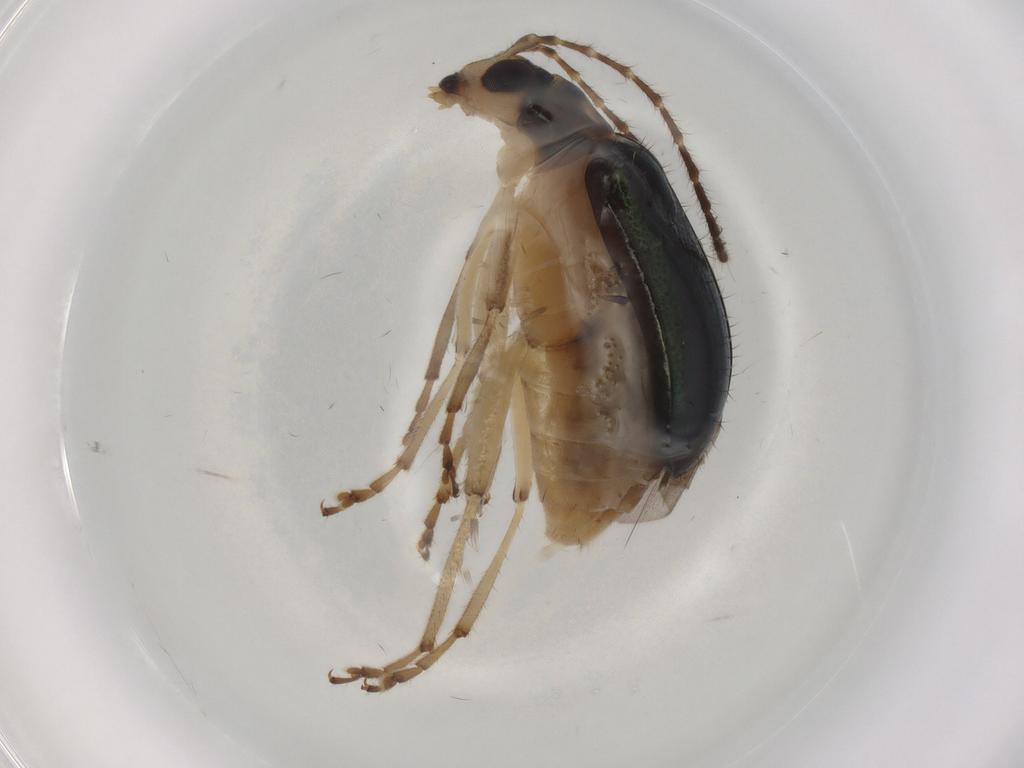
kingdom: Animalia
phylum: Arthropoda
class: Insecta
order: Coleoptera
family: Chrysomelidae
